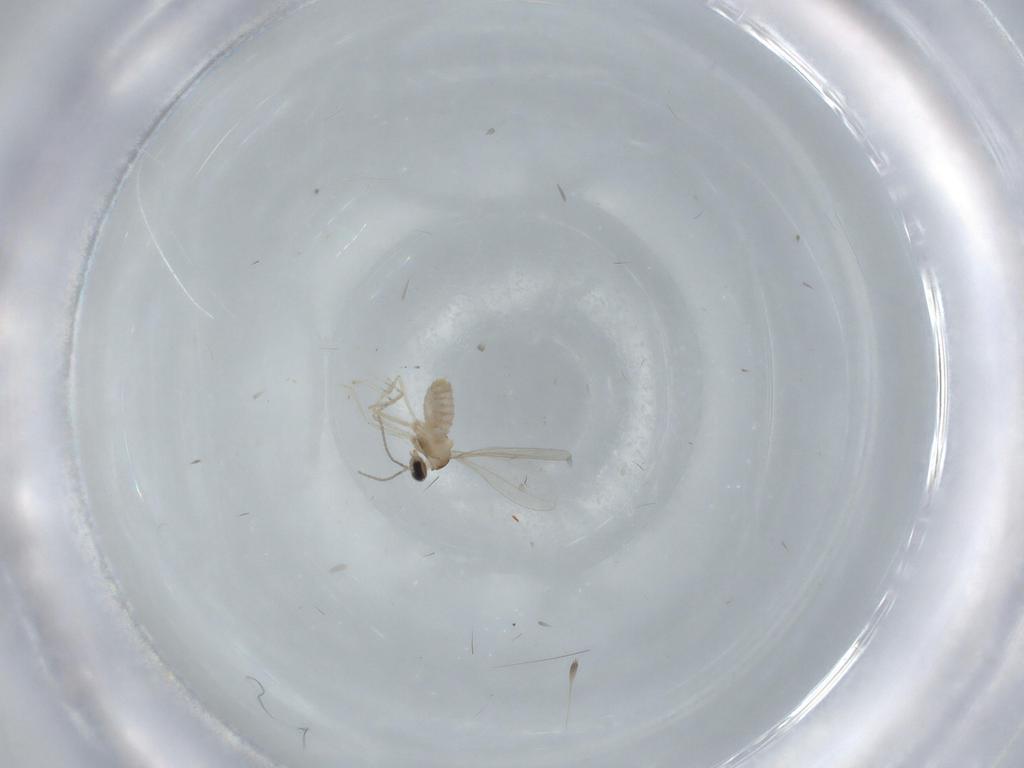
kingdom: Animalia
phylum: Arthropoda
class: Insecta
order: Diptera
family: Cecidomyiidae
